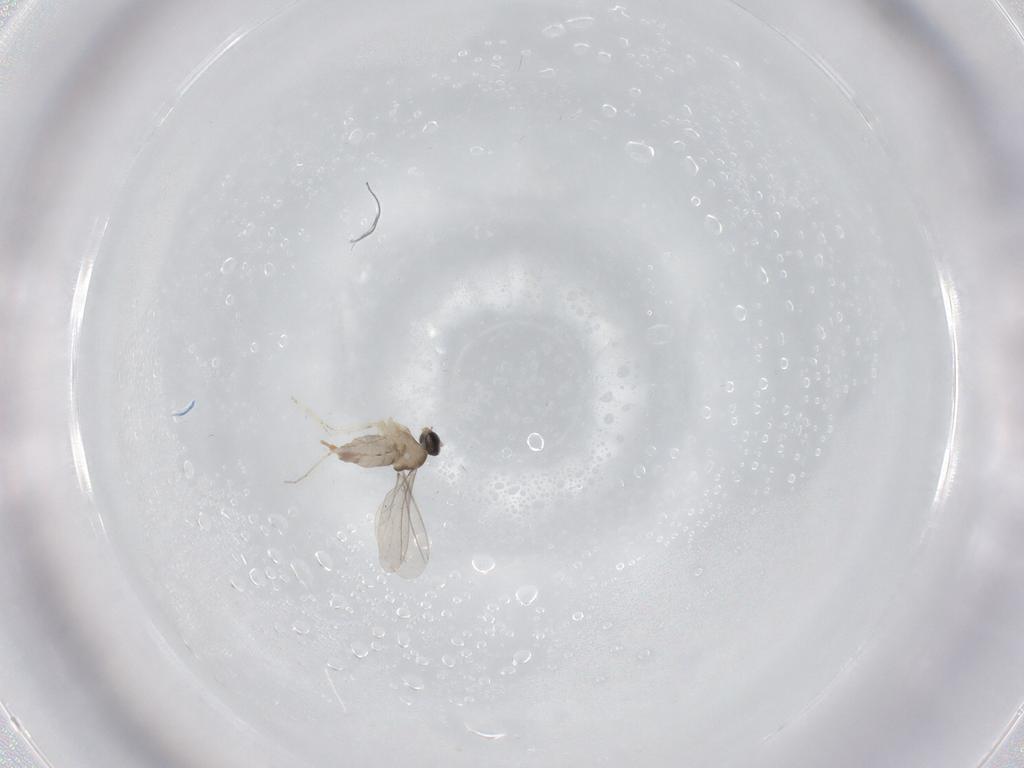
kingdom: Animalia
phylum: Arthropoda
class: Insecta
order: Diptera
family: Cecidomyiidae
